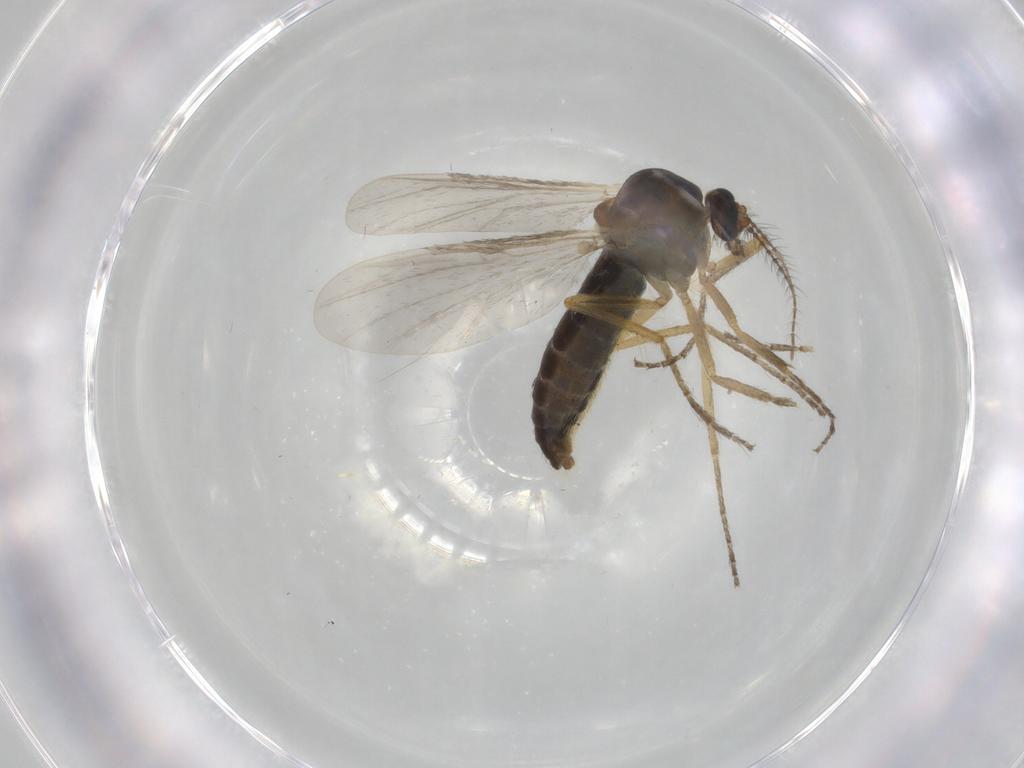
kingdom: Animalia
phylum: Arthropoda
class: Insecta
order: Diptera
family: Ceratopogonidae
